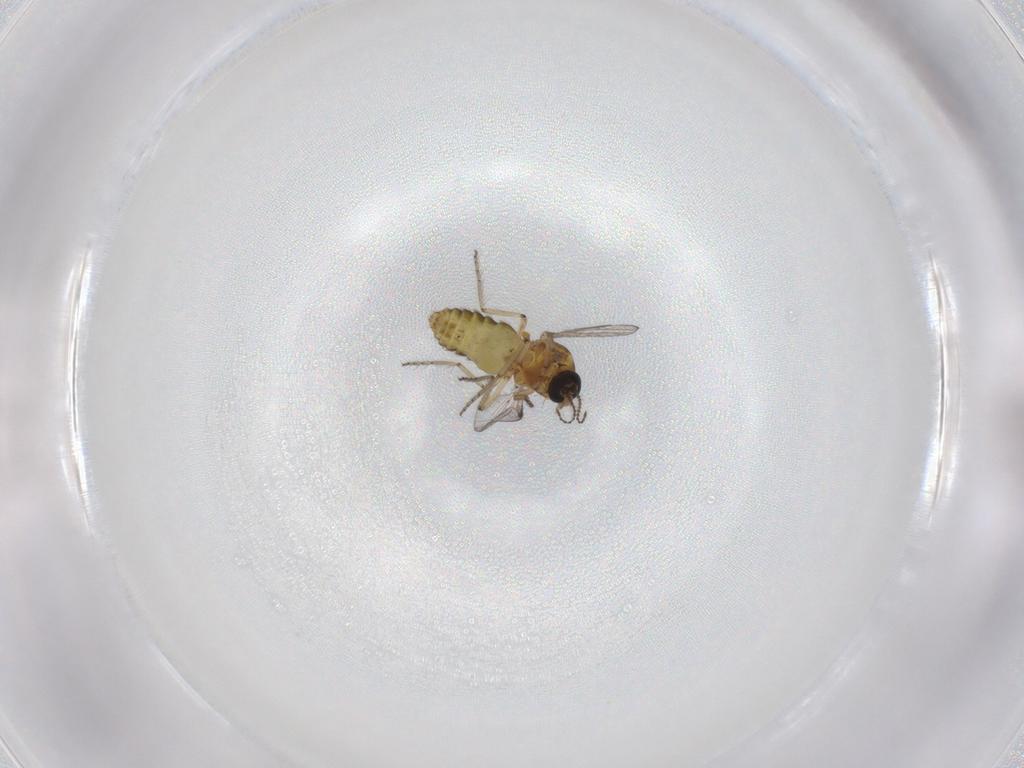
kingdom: Animalia
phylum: Arthropoda
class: Insecta
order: Diptera
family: Ceratopogonidae
